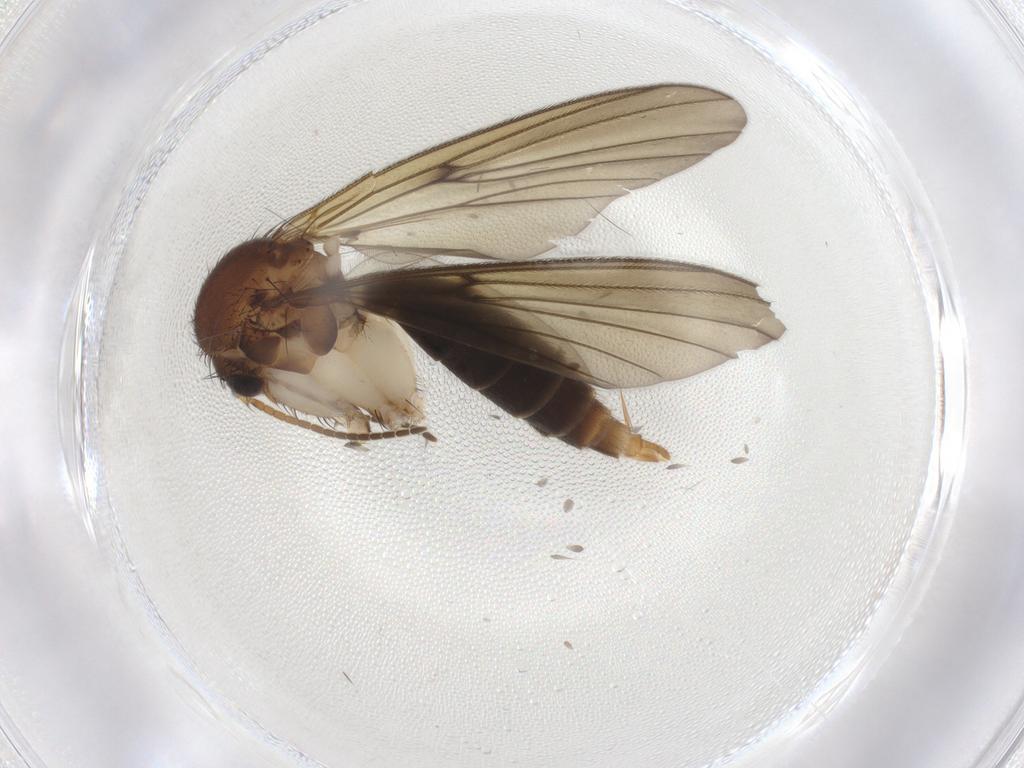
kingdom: Animalia
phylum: Arthropoda
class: Insecta
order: Diptera
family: Mycetophilidae
